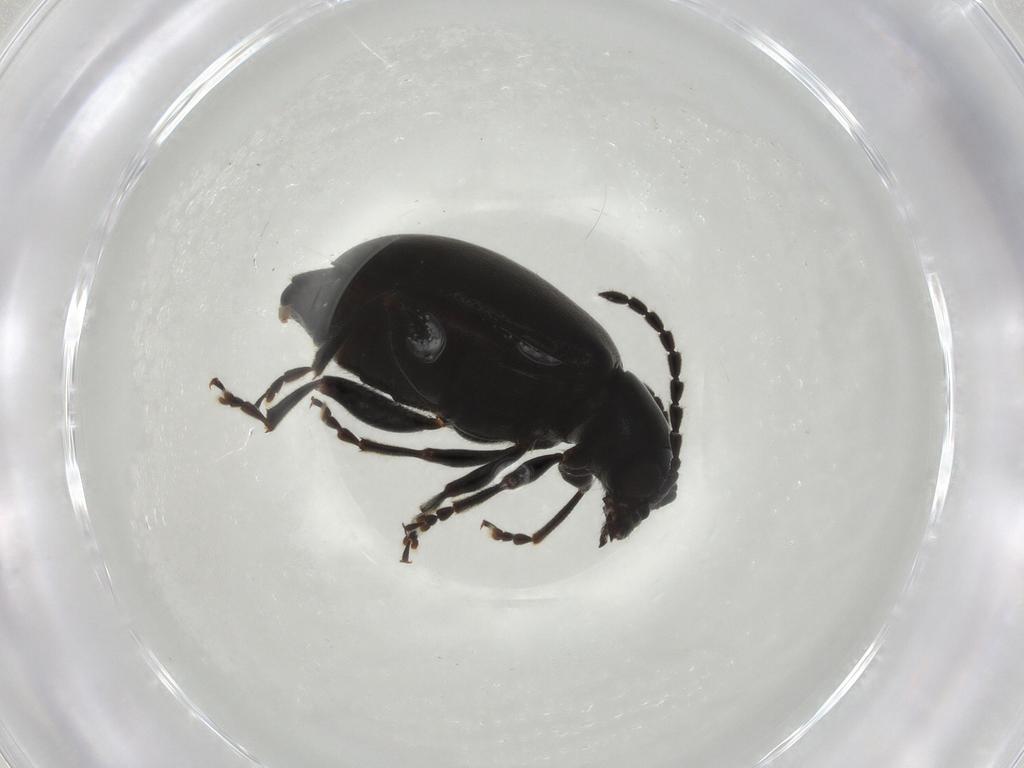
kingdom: Animalia
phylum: Arthropoda
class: Insecta
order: Coleoptera
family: Chrysomelidae
